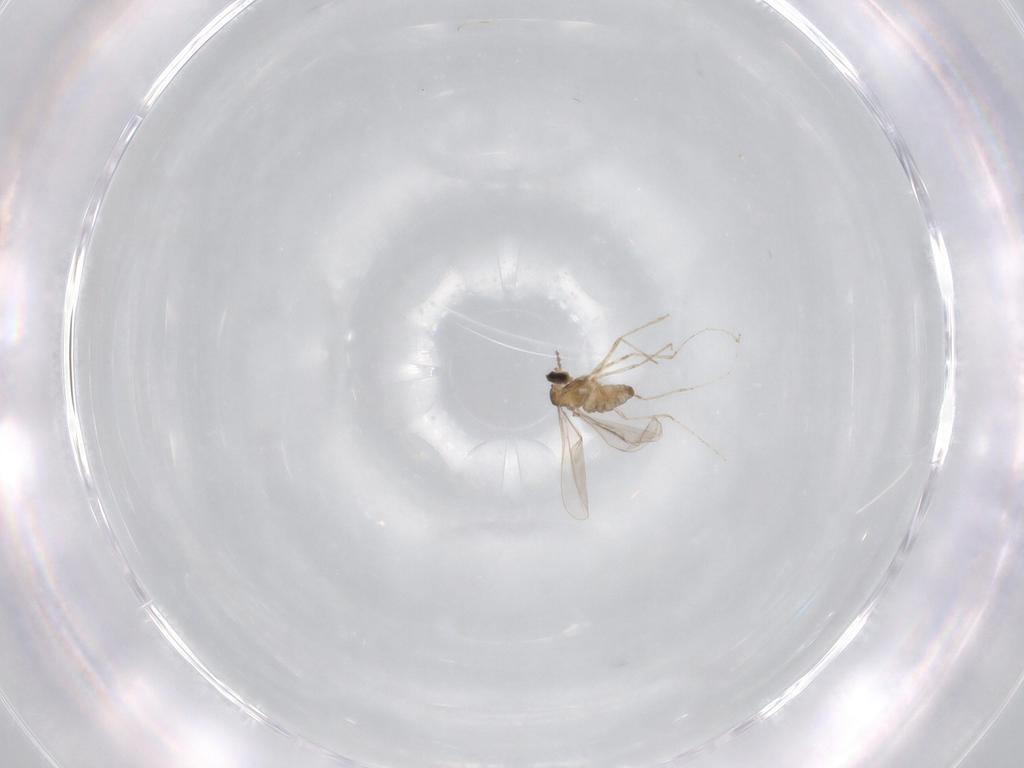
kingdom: Animalia
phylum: Arthropoda
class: Insecta
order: Diptera
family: Cecidomyiidae
